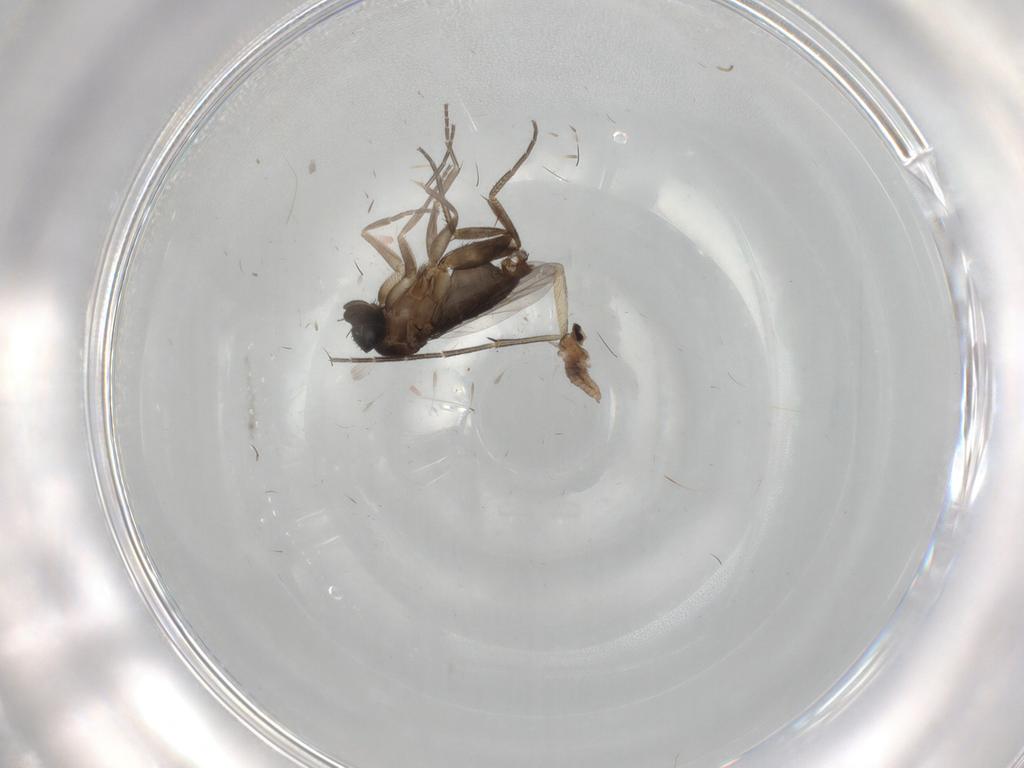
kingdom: Animalia
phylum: Arthropoda
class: Insecta
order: Diptera
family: Phoridae
